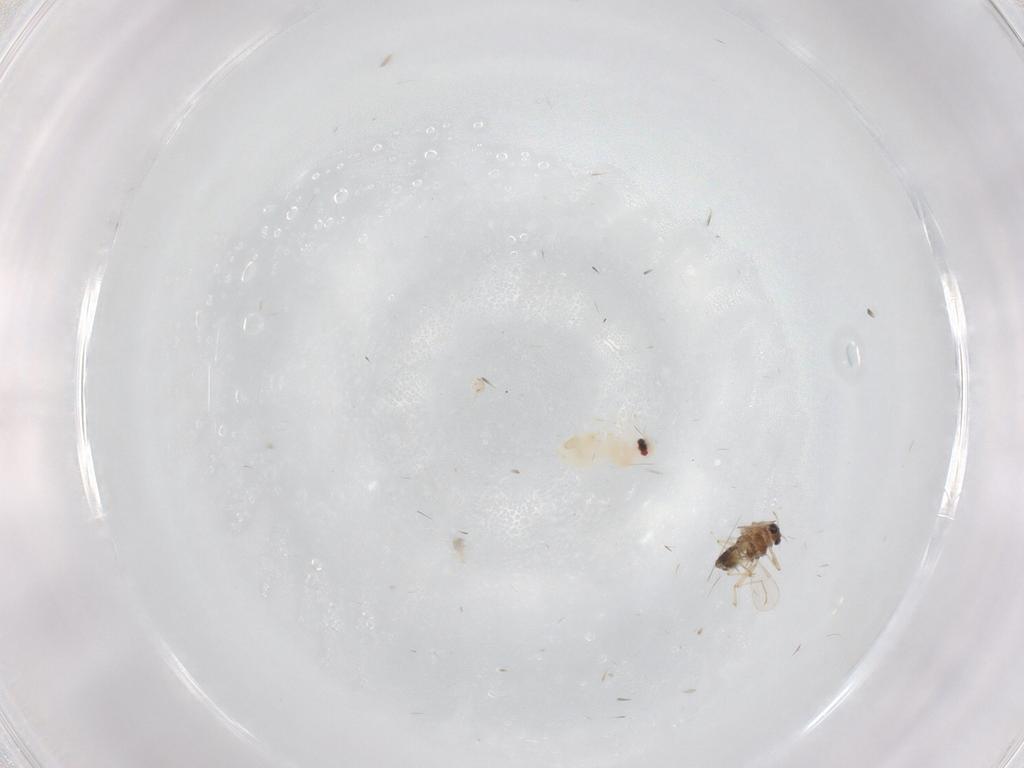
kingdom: Animalia
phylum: Arthropoda
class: Insecta
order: Diptera
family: Chironomidae
